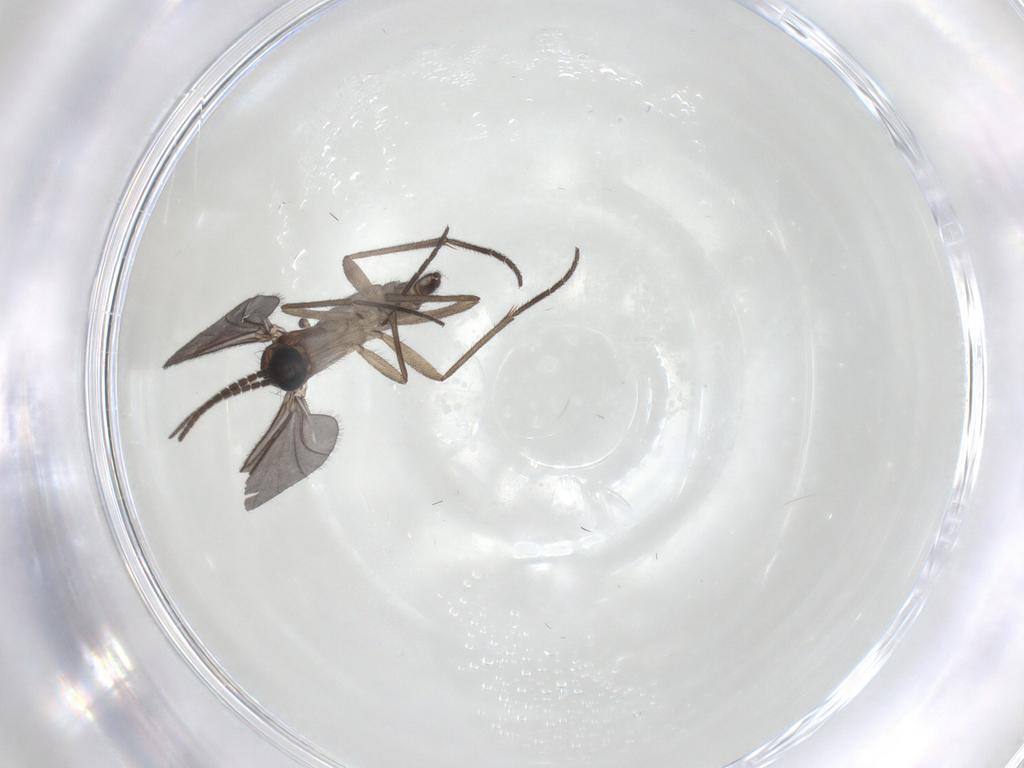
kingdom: Animalia
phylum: Arthropoda
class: Insecta
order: Diptera
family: Sciaridae
